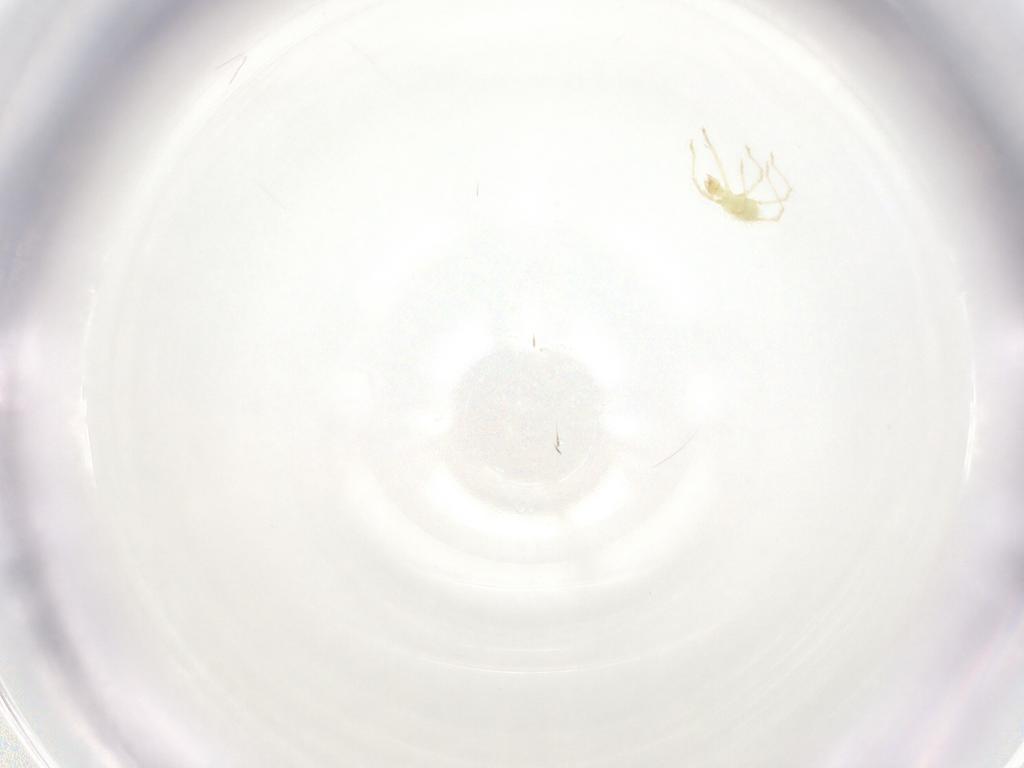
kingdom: Animalia
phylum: Arthropoda
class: Arachnida
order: Trombidiformes
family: Erythraeidae
